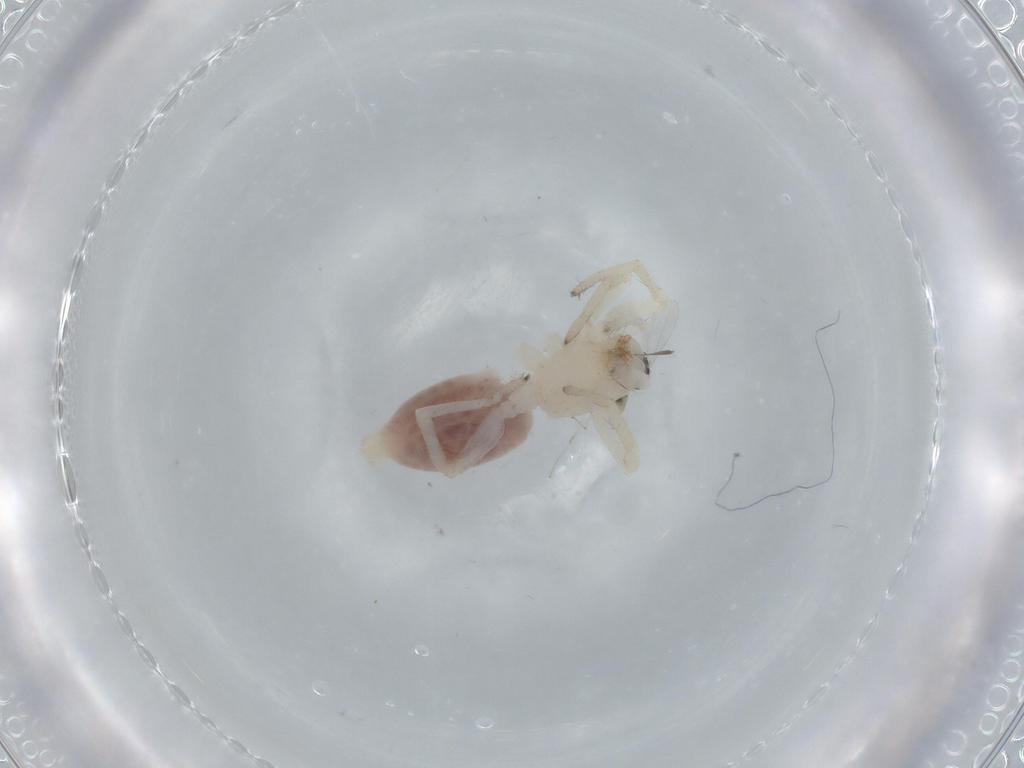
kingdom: Animalia
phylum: Arthropoda
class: Arachnida
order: Araneae
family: Clubionidae
